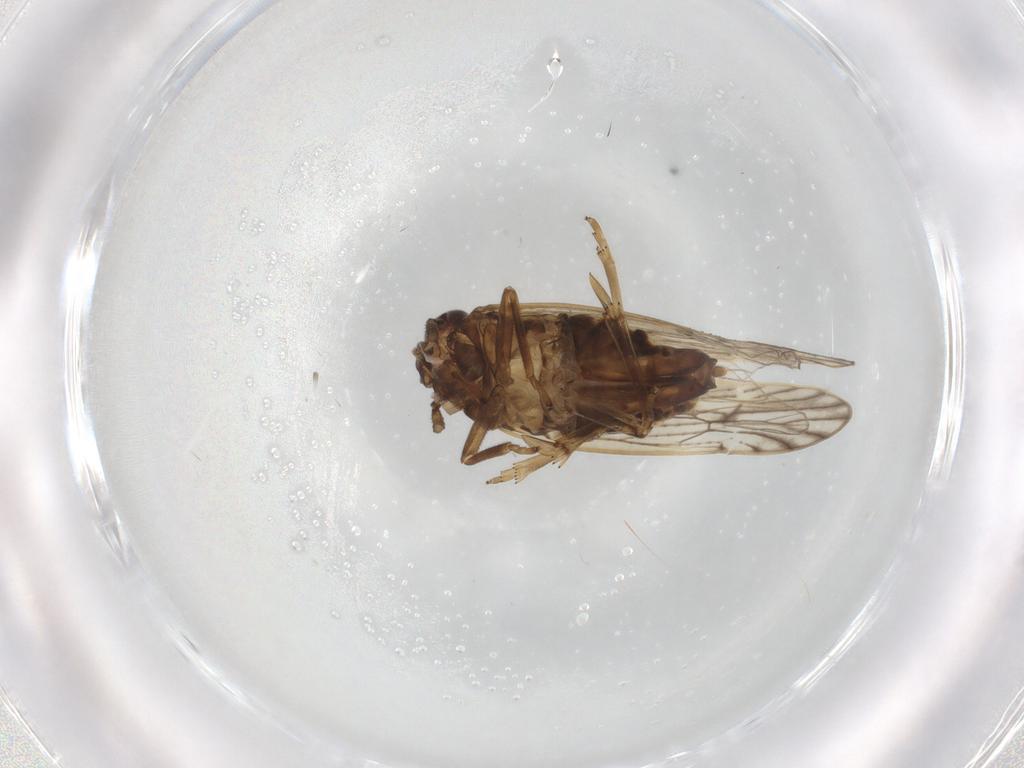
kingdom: Animalia
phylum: Arthropoda
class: Insecta
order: Hemiptera
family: Delphacidae
